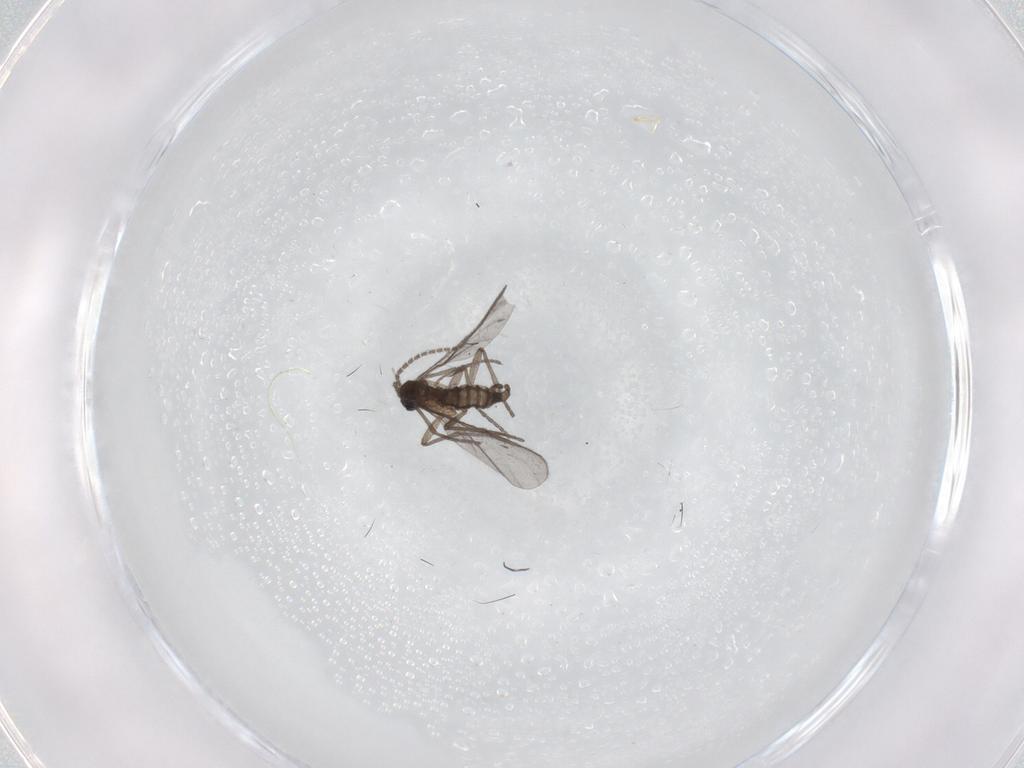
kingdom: Animalia
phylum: Arthropoda
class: Insecta
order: Diptera
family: Sciaridae
